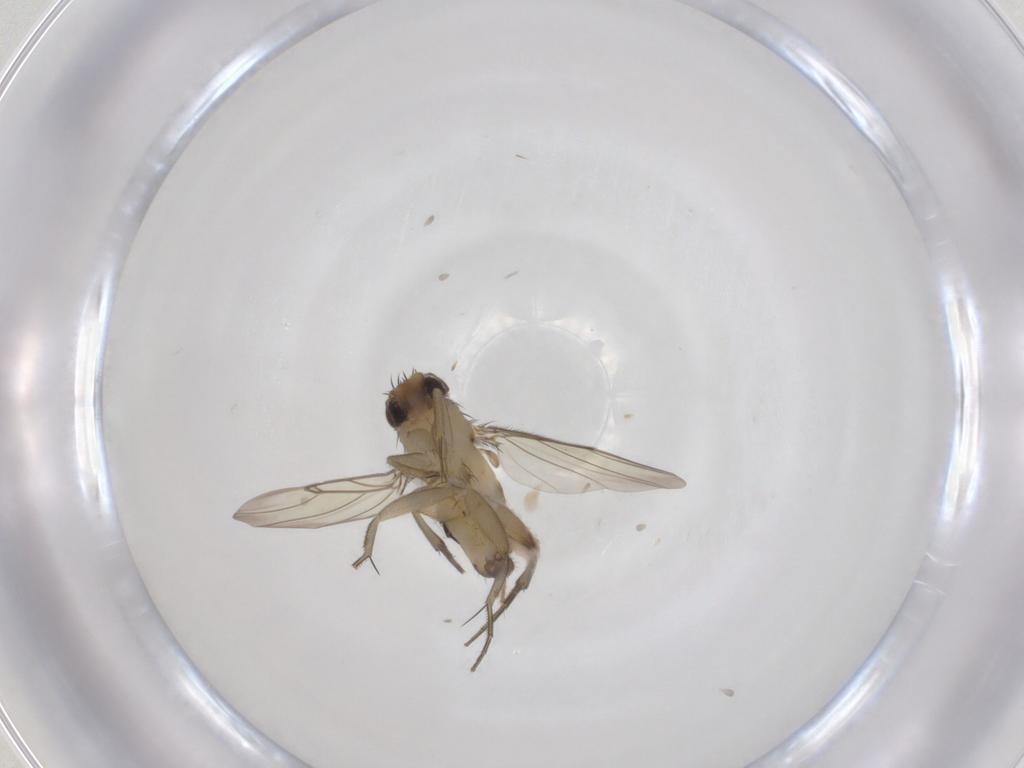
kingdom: Animalia
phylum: Arthropoda
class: Insecta
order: Diptera
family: Phoridae
